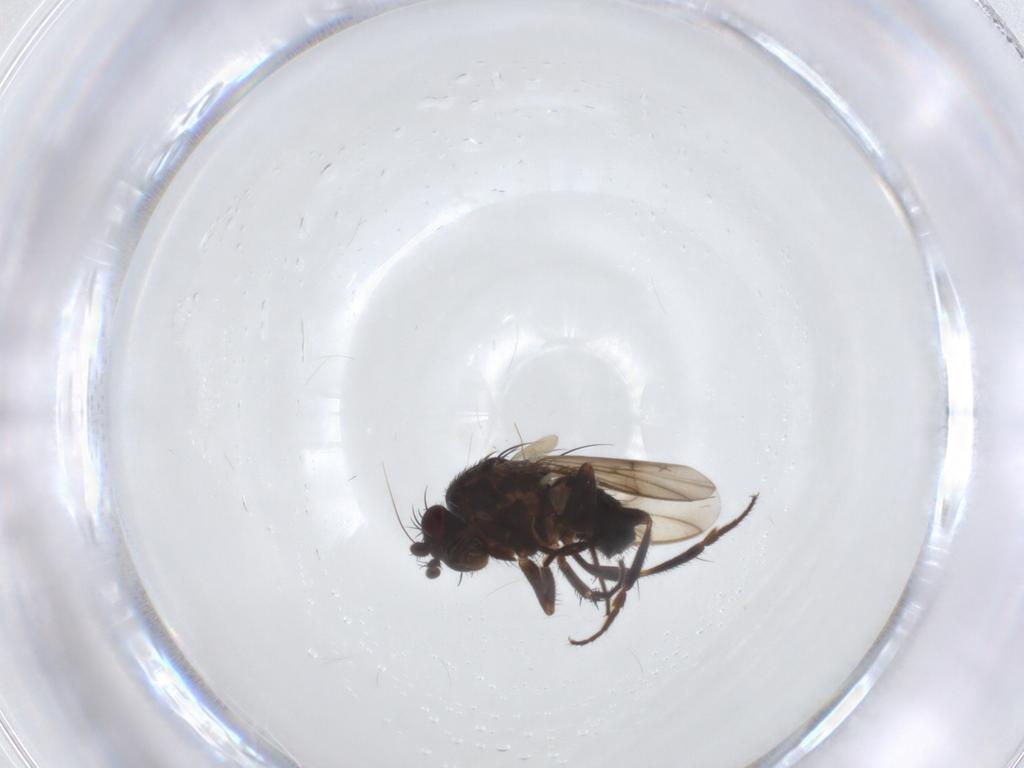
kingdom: Animalia
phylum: Arthropoda
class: Insecta
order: Diptera
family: Sphaeroceridae
